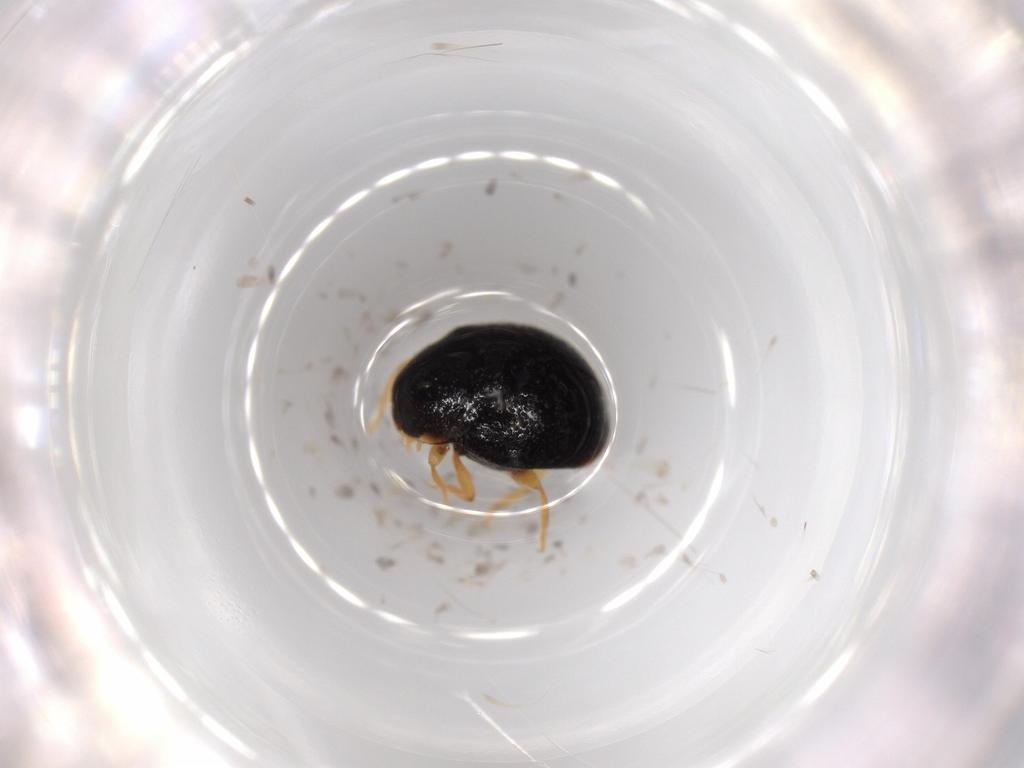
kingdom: Animalia
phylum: Arthropoda
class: Insecta
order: Coleoptera
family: Coccinellidae
